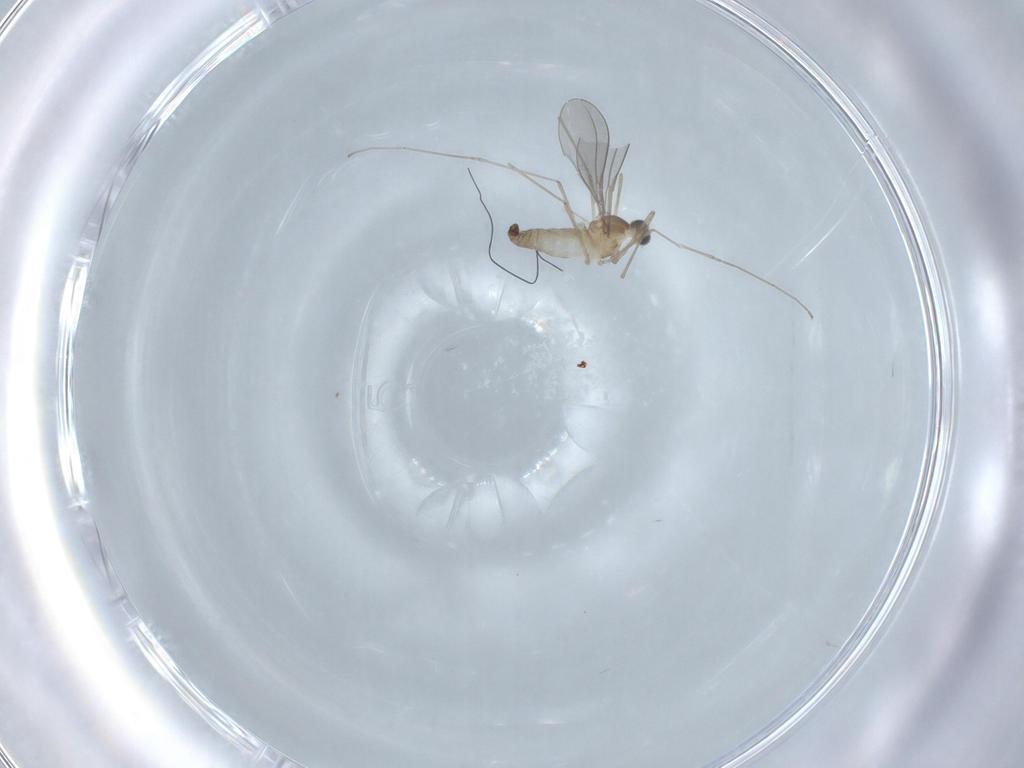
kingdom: Animalia
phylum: Arthropoda
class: Insecta
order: Diptera
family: Cecidomyiidae
